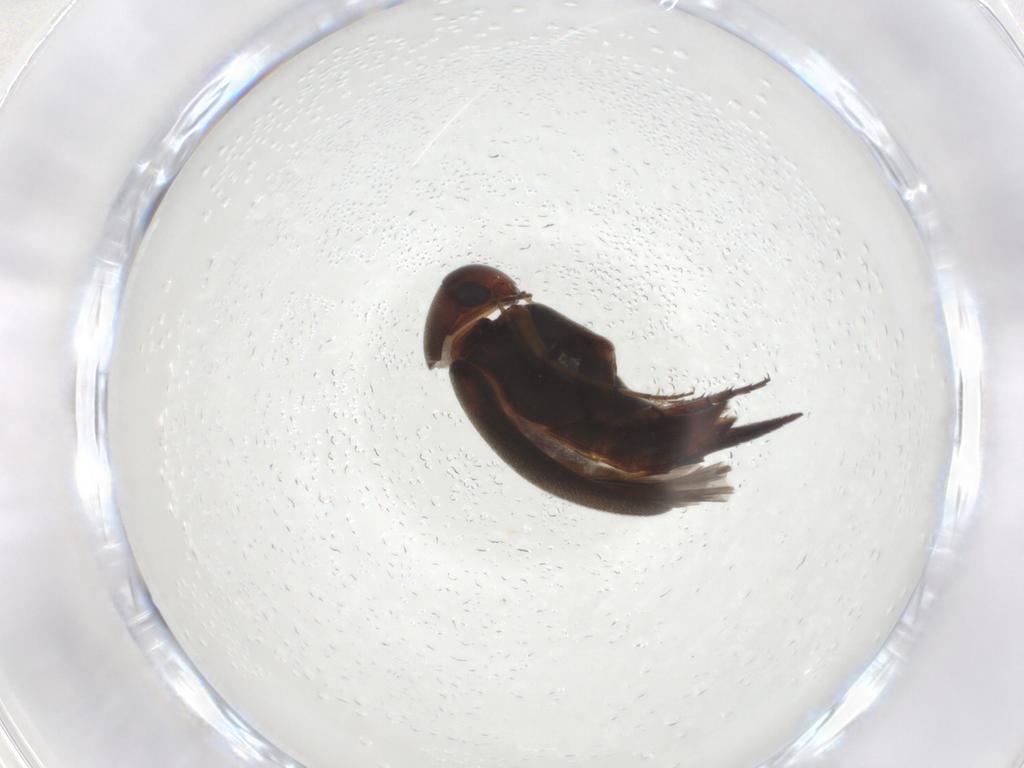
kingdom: Animalia
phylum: Arthropoda
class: Insecta
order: Coleoptera
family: Mordellidae
